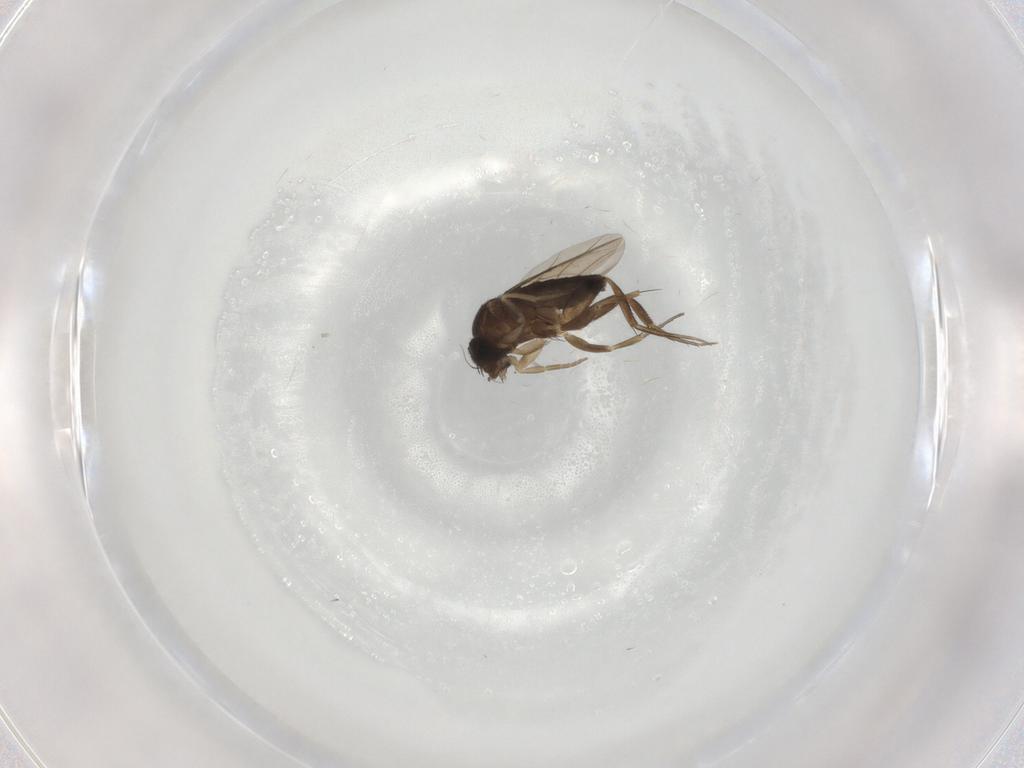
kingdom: Animalia
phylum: Arthropoda
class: Insecta
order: Diptera
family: Phoridae
